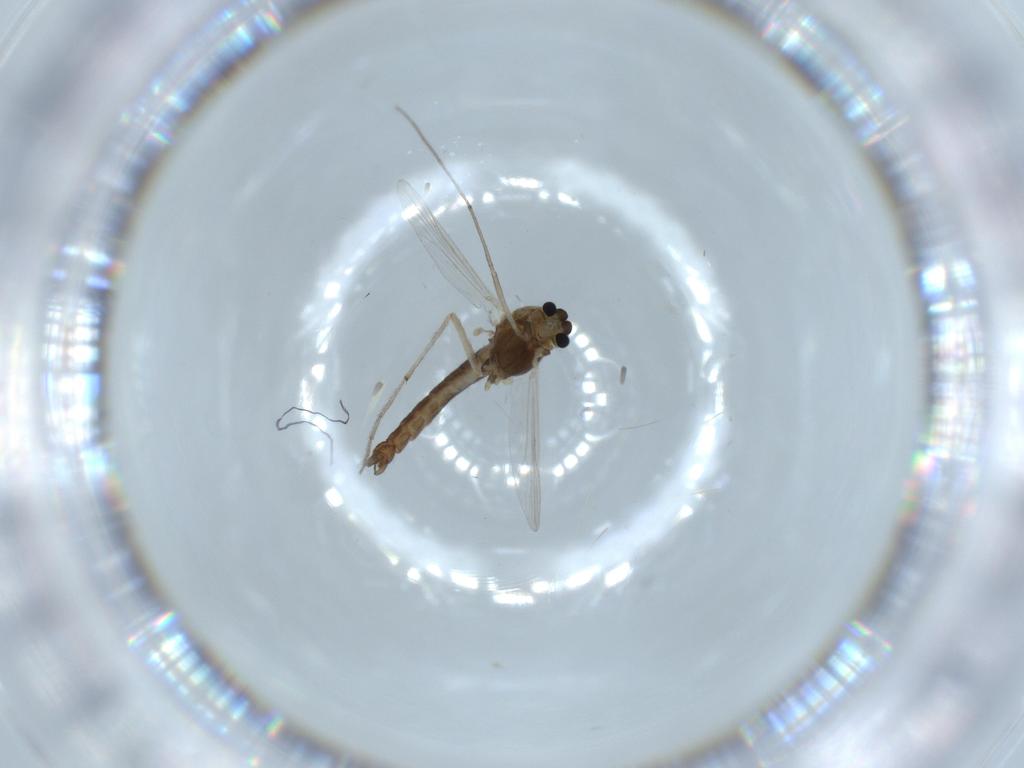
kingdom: Animalia
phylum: Arthropoda
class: Insecta
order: Diptera
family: Chironomidae
